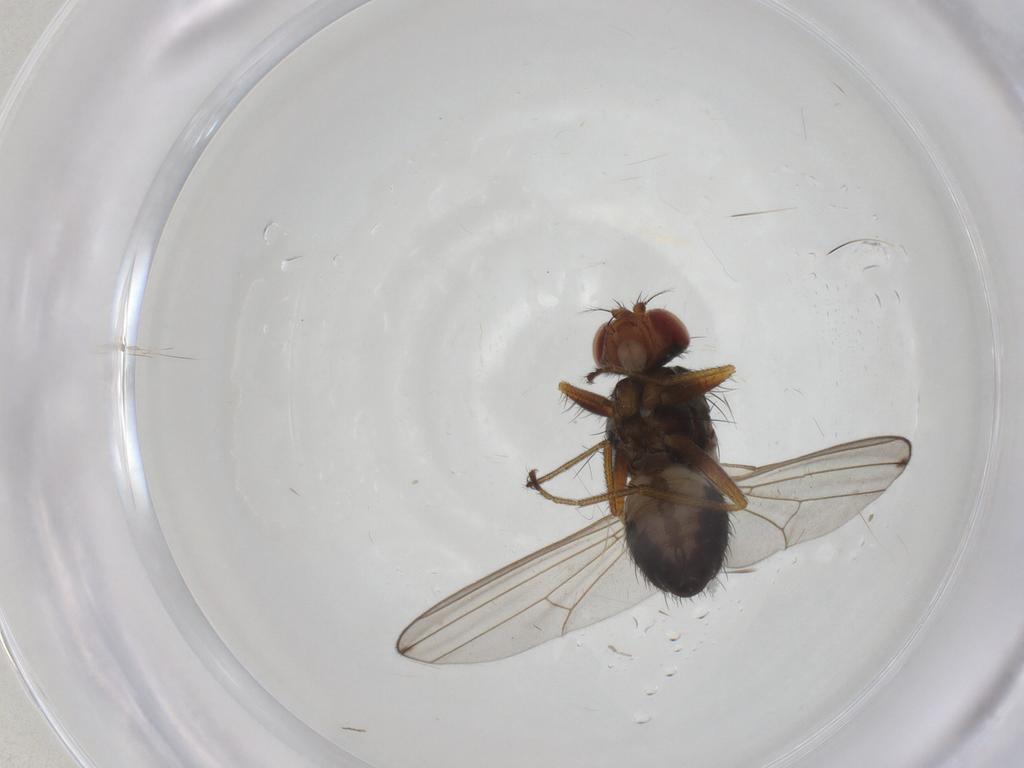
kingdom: Animalia
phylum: Arthropoda
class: Insecta
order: Diptera
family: Drosophilidae
